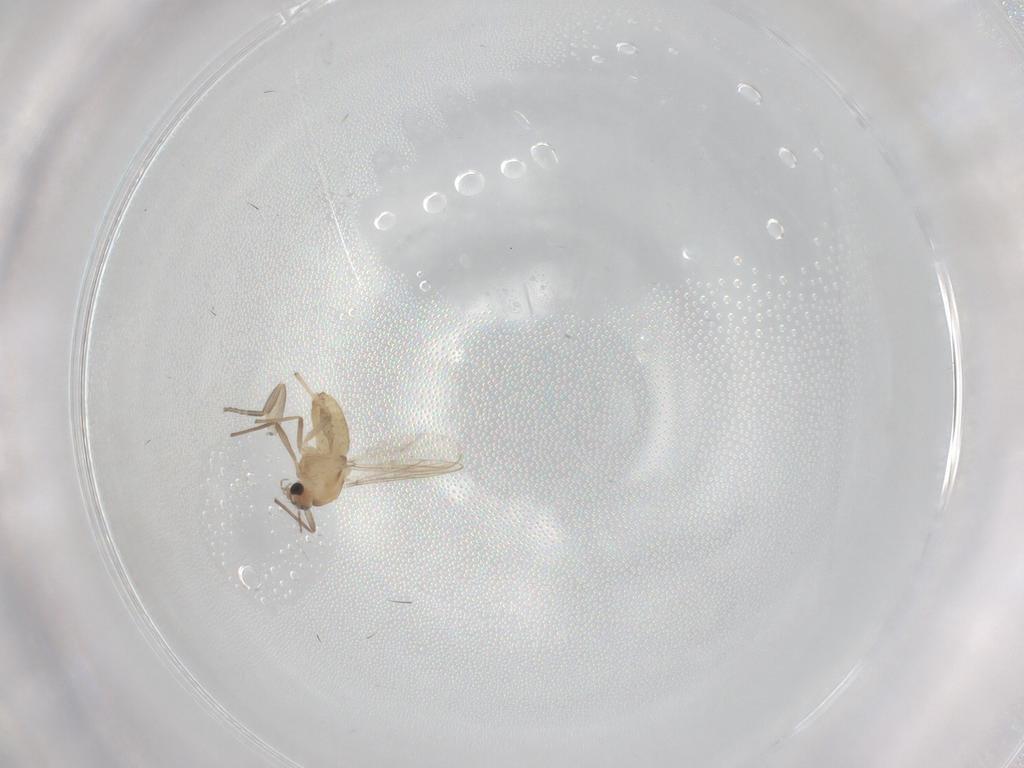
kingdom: Animalia
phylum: Arthropoda
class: Insecta
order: Diptera
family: Chironomidae
